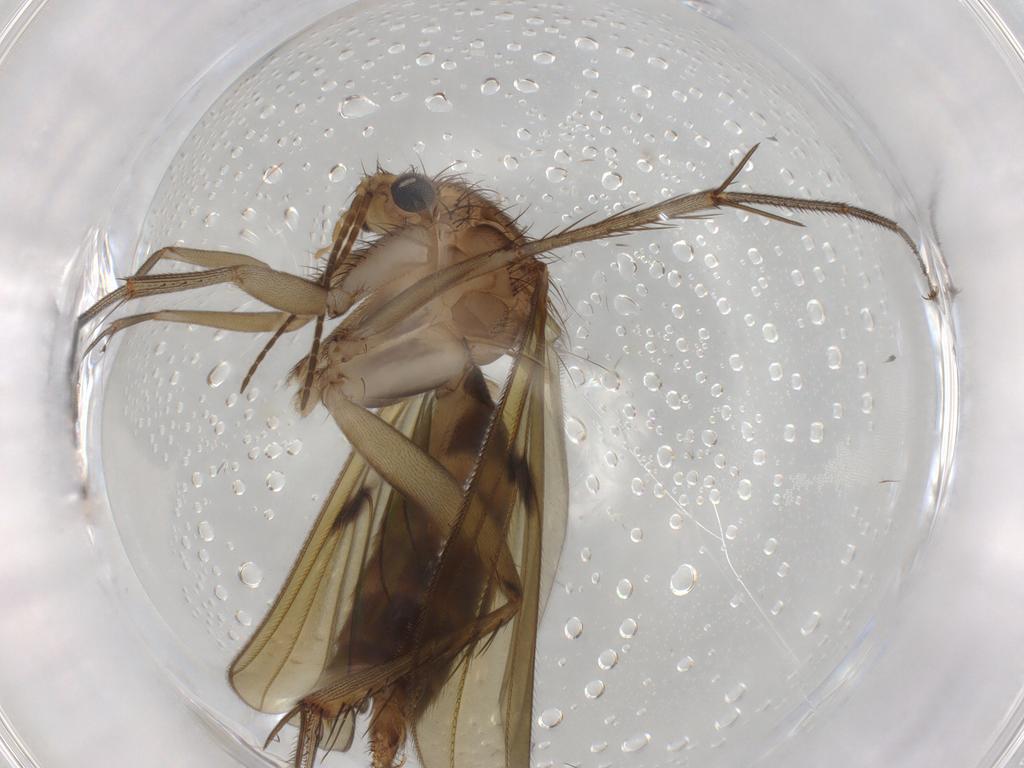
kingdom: Animalia
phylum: Arthropoda
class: Insecta
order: Diptera
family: Mycetophilidae
